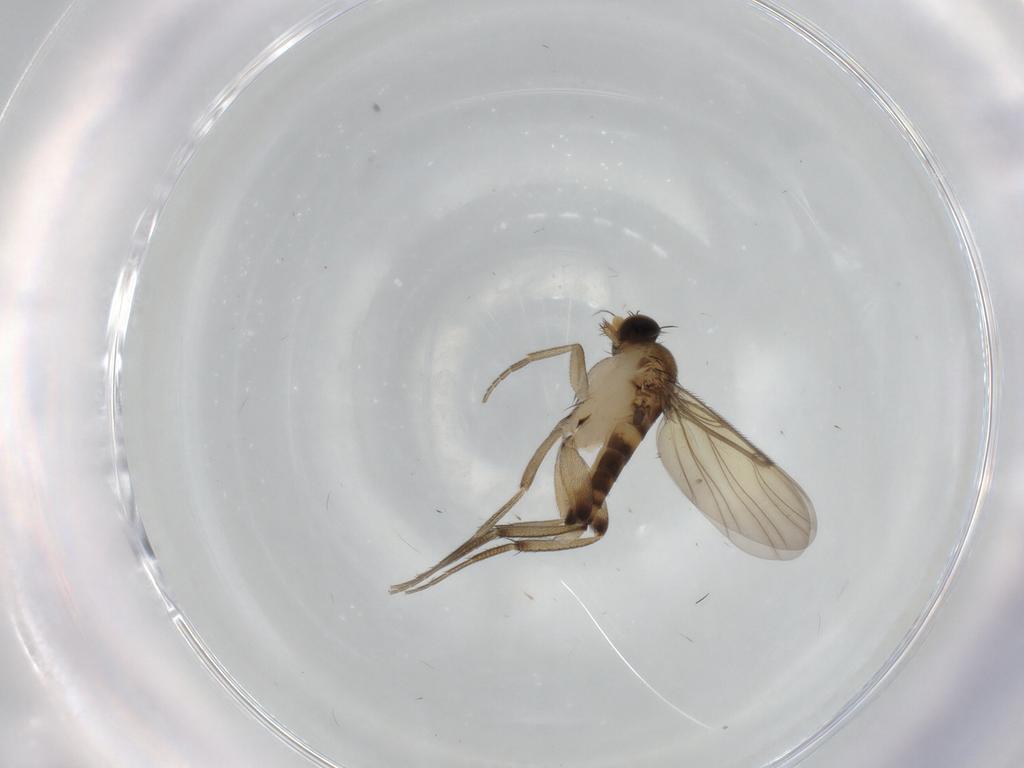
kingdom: Animalia
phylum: Arthropoda
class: Insecta
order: Diptera
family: Phoridae
